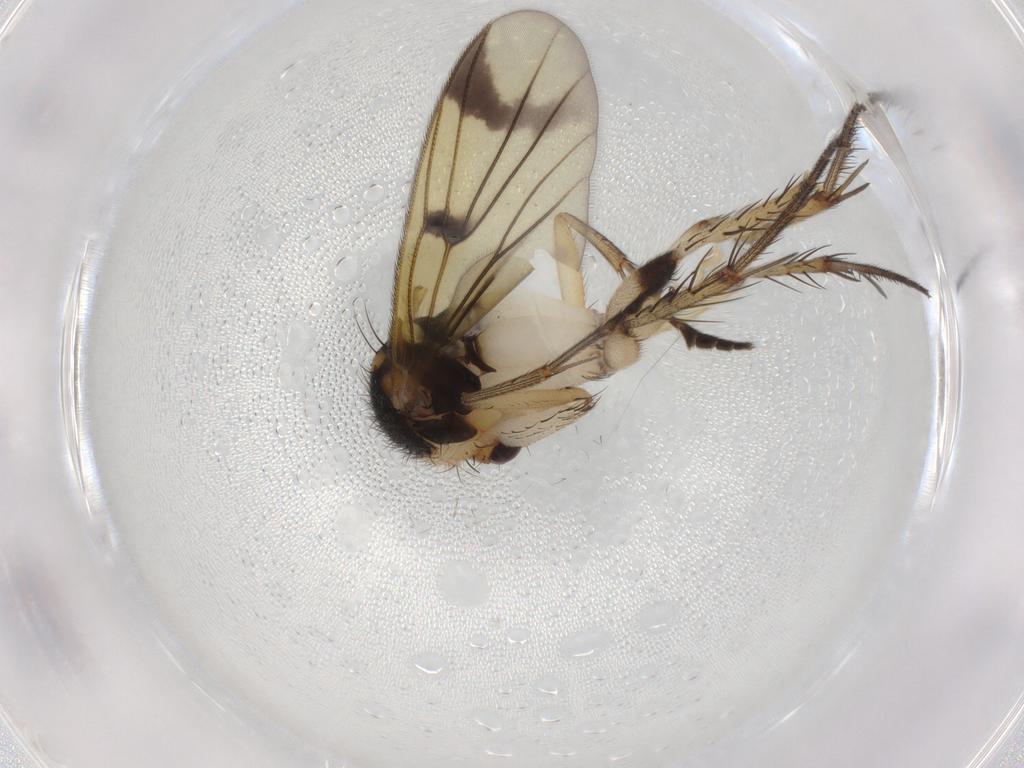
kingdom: Animalia
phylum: Arthropoda
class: Insecta
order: Diptera
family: Mycetophilidae
